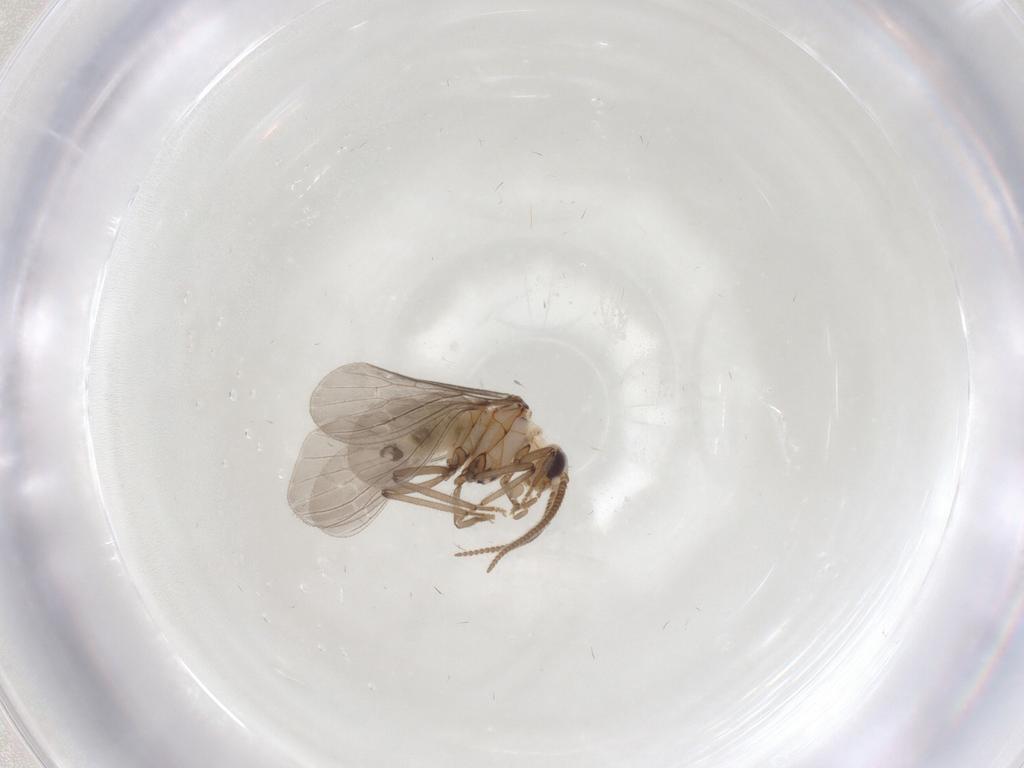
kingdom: Animalia
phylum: Arthropoda
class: Insecta
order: Neuroptera
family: Coniopterygidae
